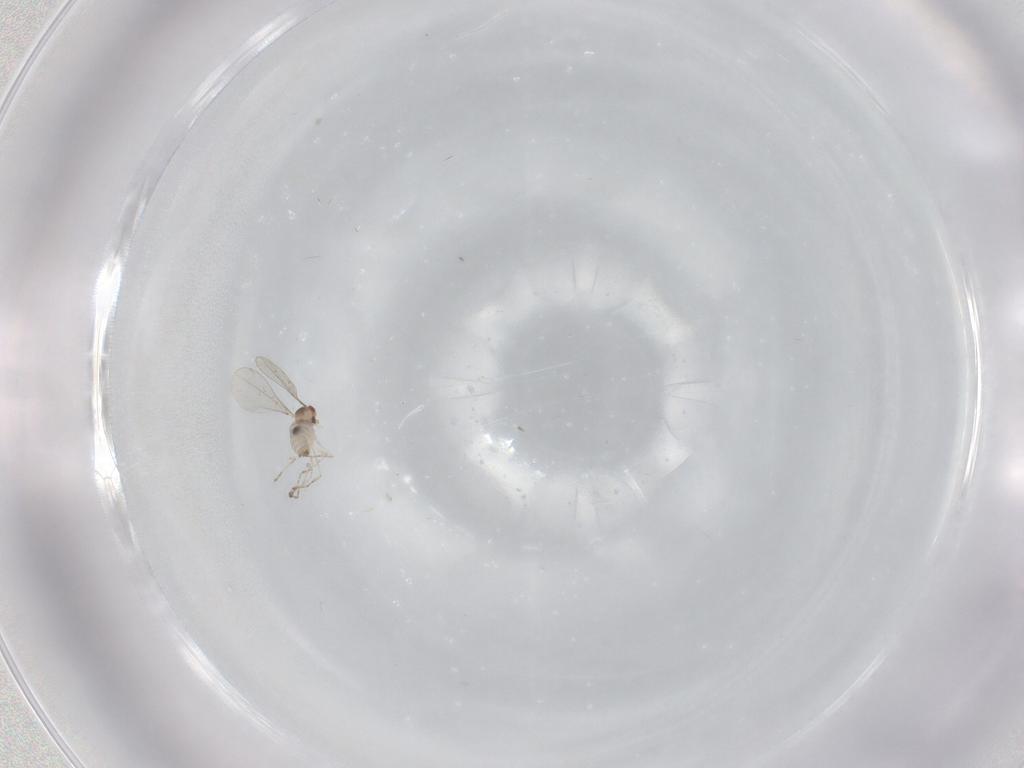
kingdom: Animalia
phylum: Arthropoda
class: Insecta
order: Diptera
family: Cecidomyiidae
